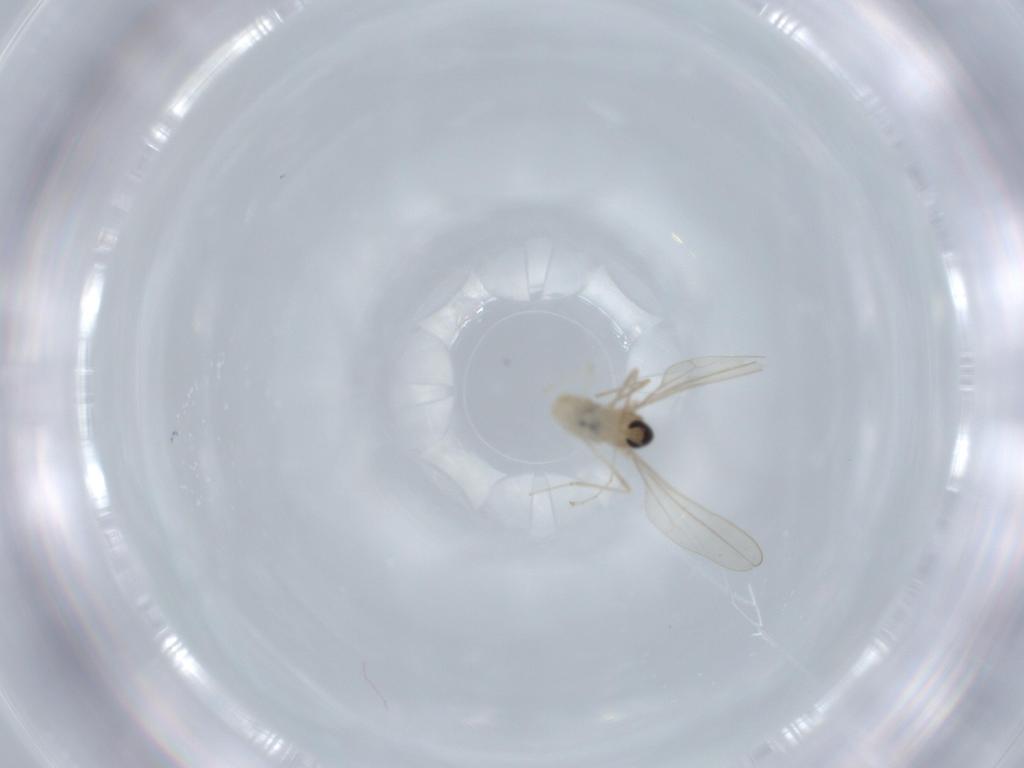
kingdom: Animalia
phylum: Arthropoda
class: Insecta
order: Diptera
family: Cecidomyiidae
